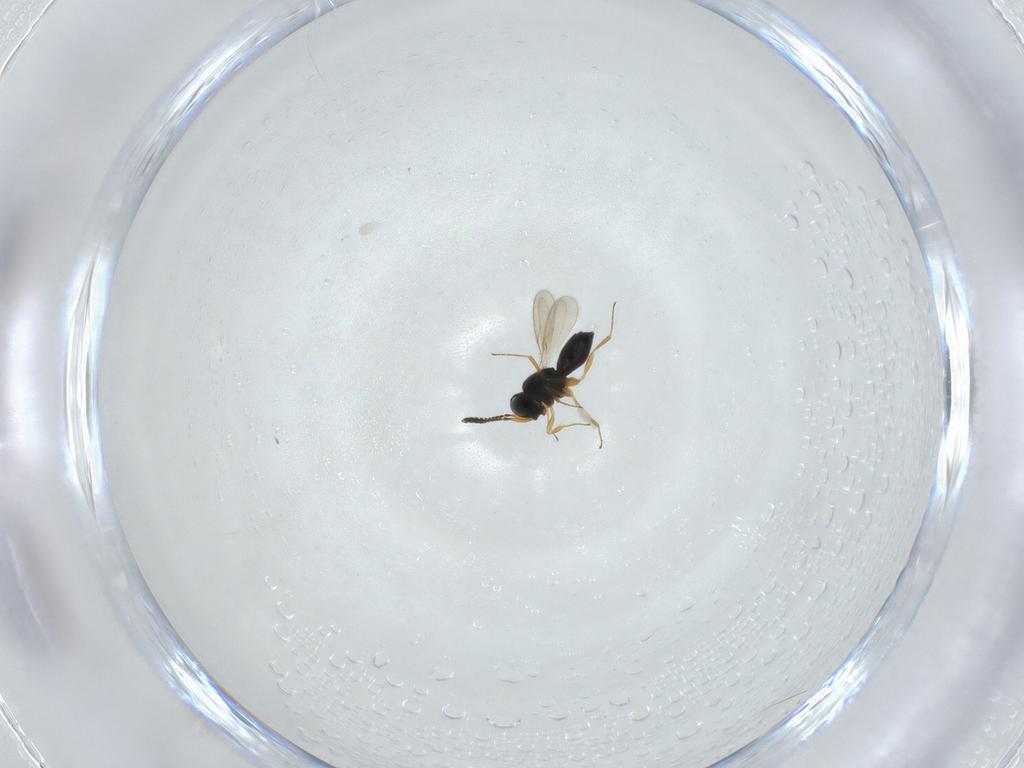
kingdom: Animalia
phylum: Arthropoda
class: Insecta
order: Hymenoptera
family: Scelionidae
